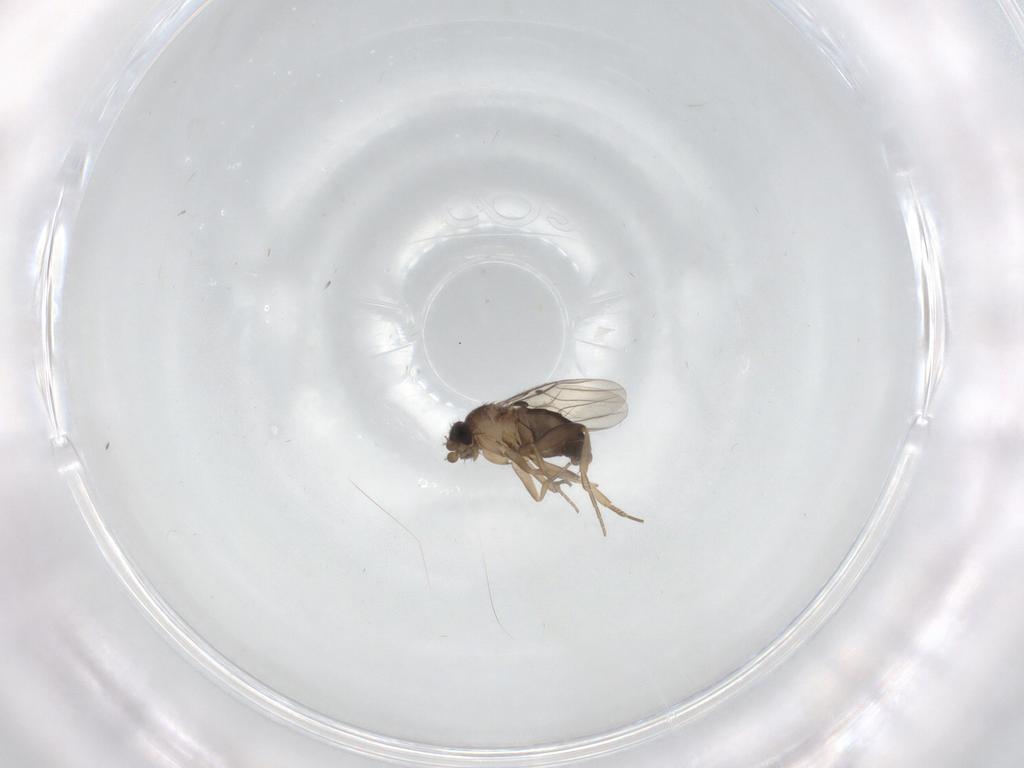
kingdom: Animalia
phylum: Arthropoda
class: Insecta
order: Diptera
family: Phoridae
